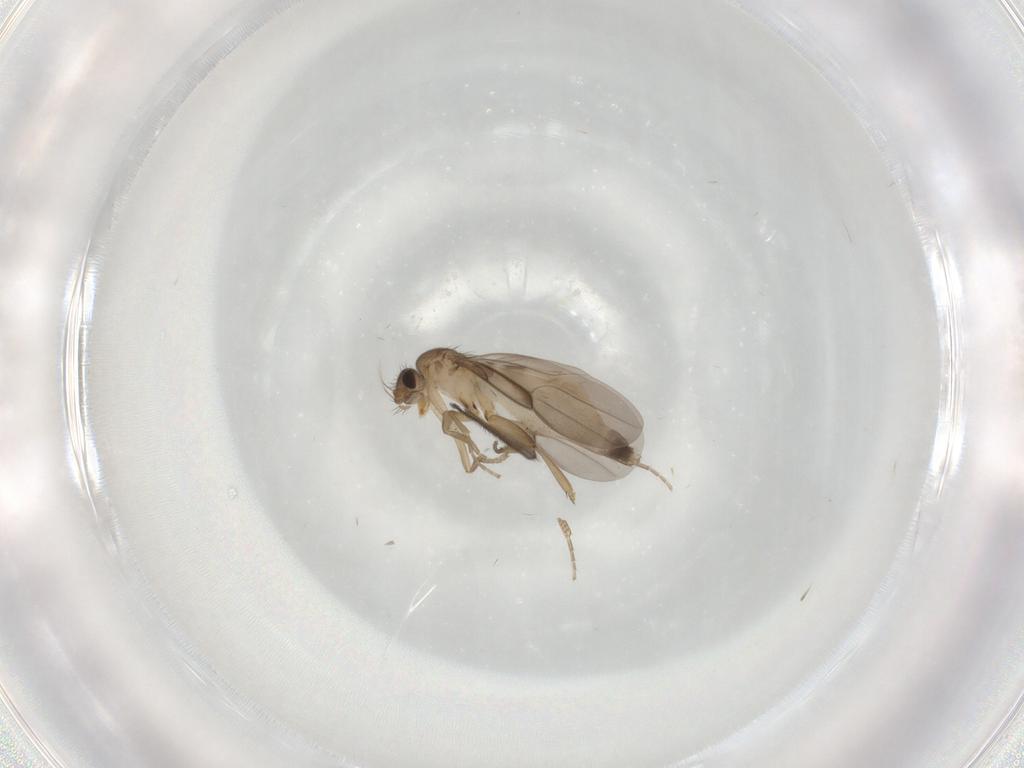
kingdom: Animalia
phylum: Arthropoda
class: Insecta
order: Diptera
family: Phoridae
